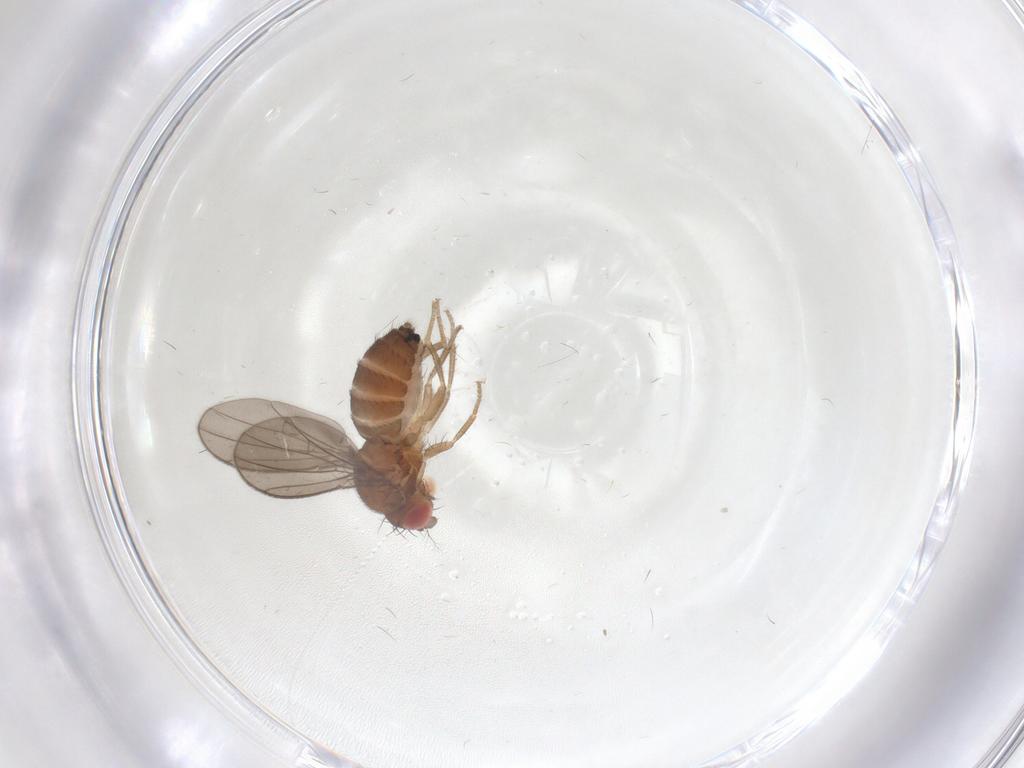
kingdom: Animalia
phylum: Arthropoda
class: Insecta
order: Diptera
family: Drosophilidae
